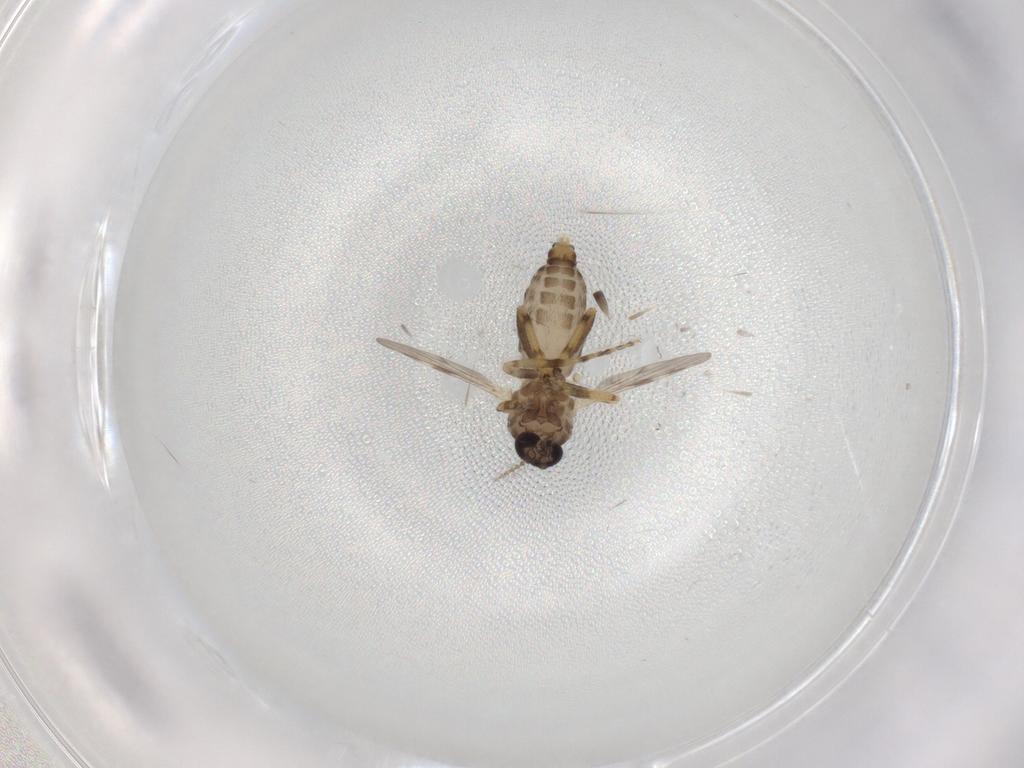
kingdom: Animalia
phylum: Arthropoda
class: Insecta
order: Diptera
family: Ceratopogonidae
